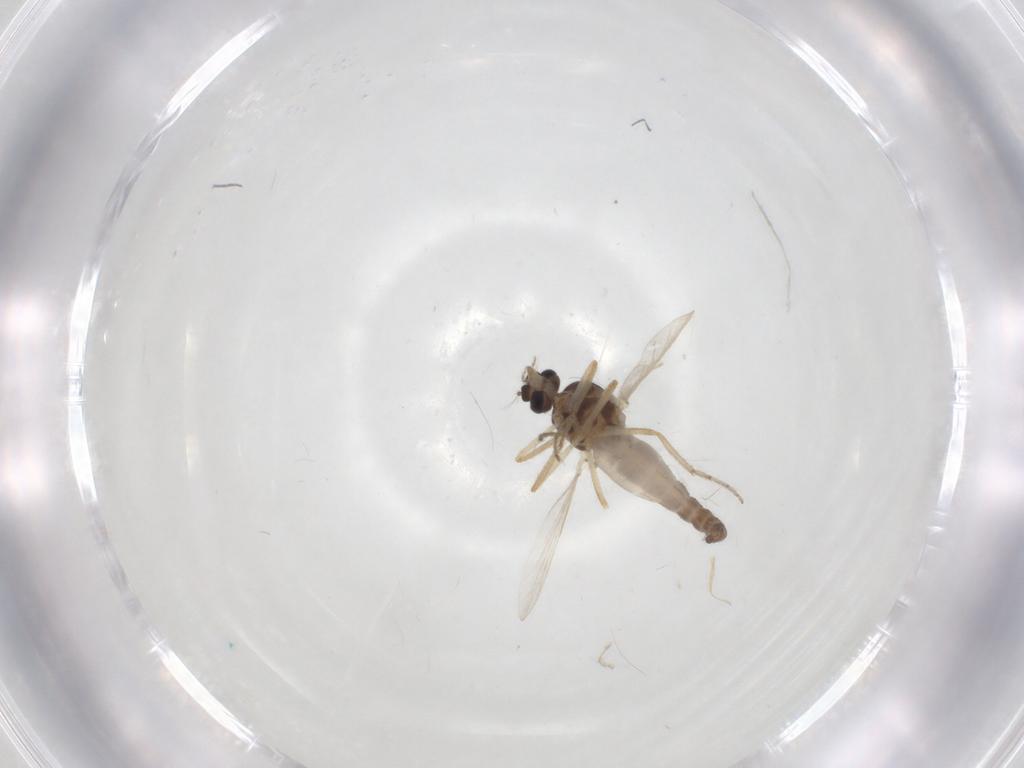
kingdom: Animalia
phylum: Arthropoda
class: Insecta
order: Diptera
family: Ceratopogonidae
